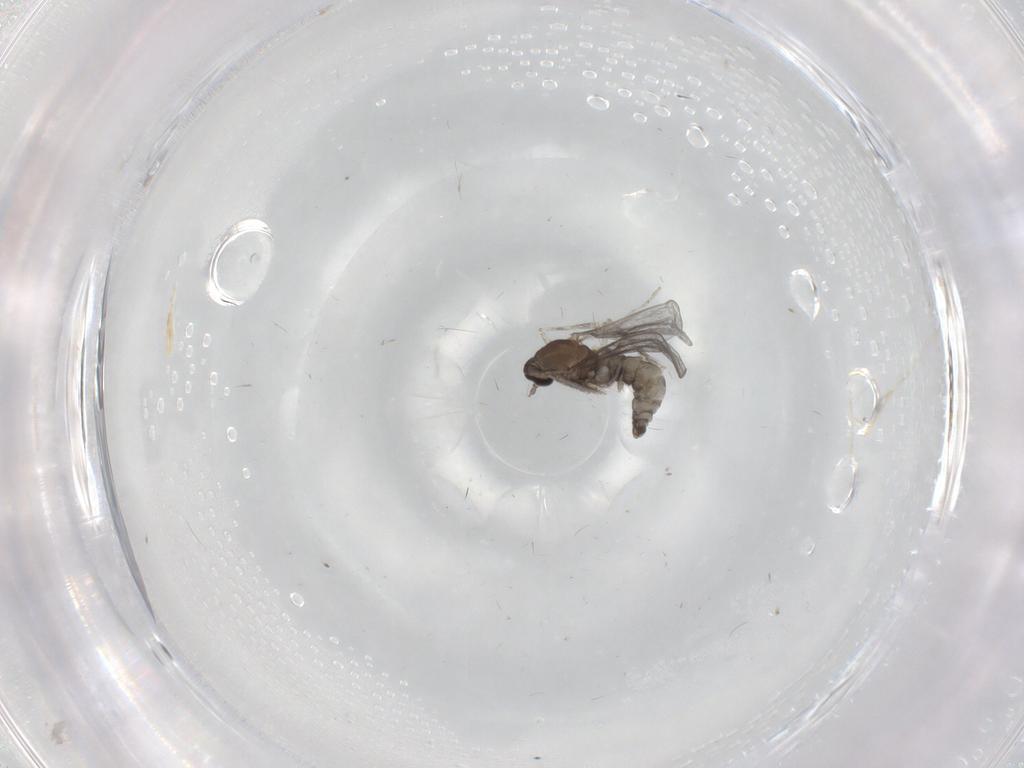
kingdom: Animalia
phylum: Arthropoda
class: Insecta
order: Diptera
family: Cecidomyiidae
